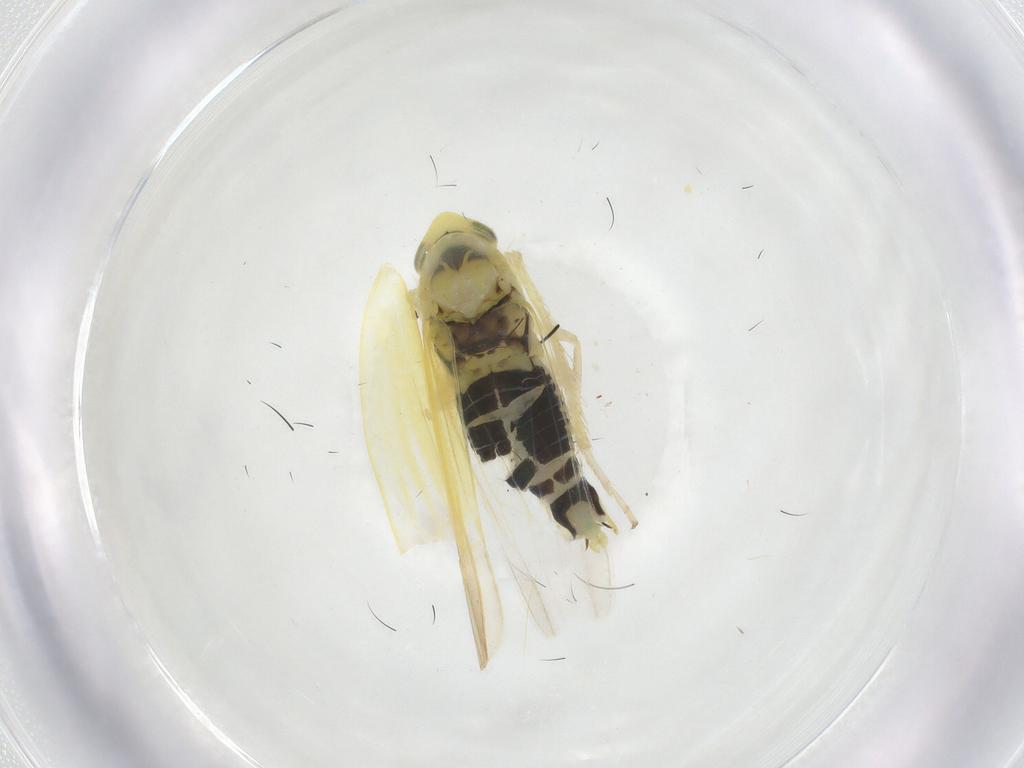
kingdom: Animalia
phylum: Arthropoda
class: Insecta
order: Hemiptera
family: Aphididae
